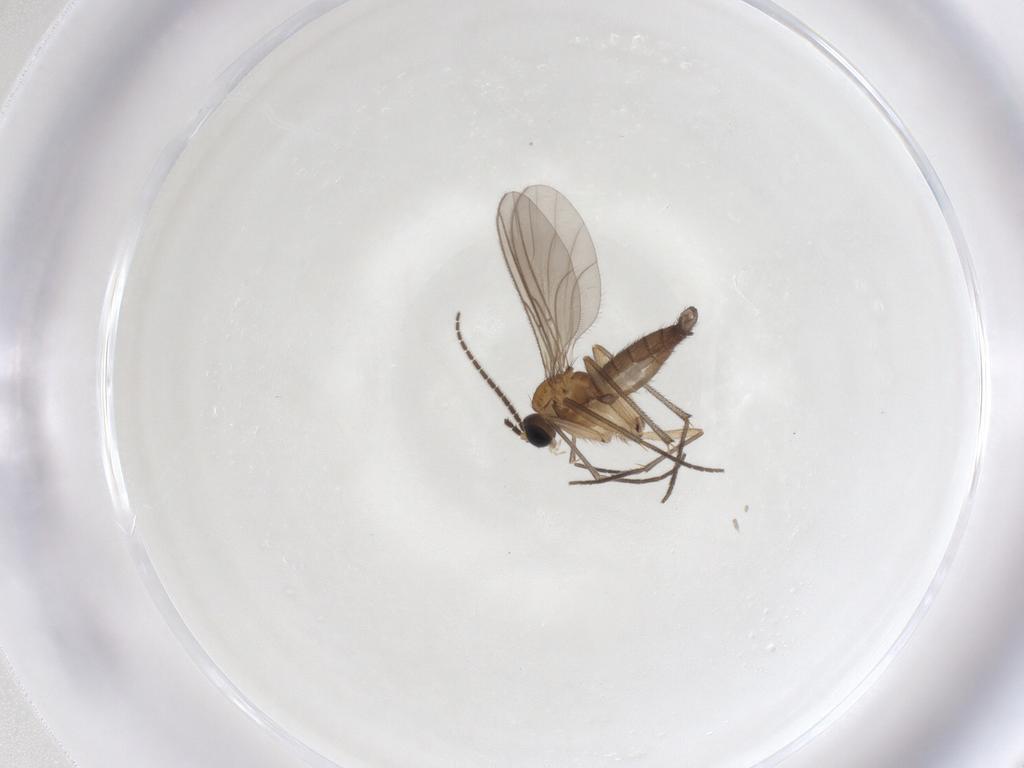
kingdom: Animalia
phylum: Arthropoda
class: Insecta
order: Diptera
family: Sciaridae
